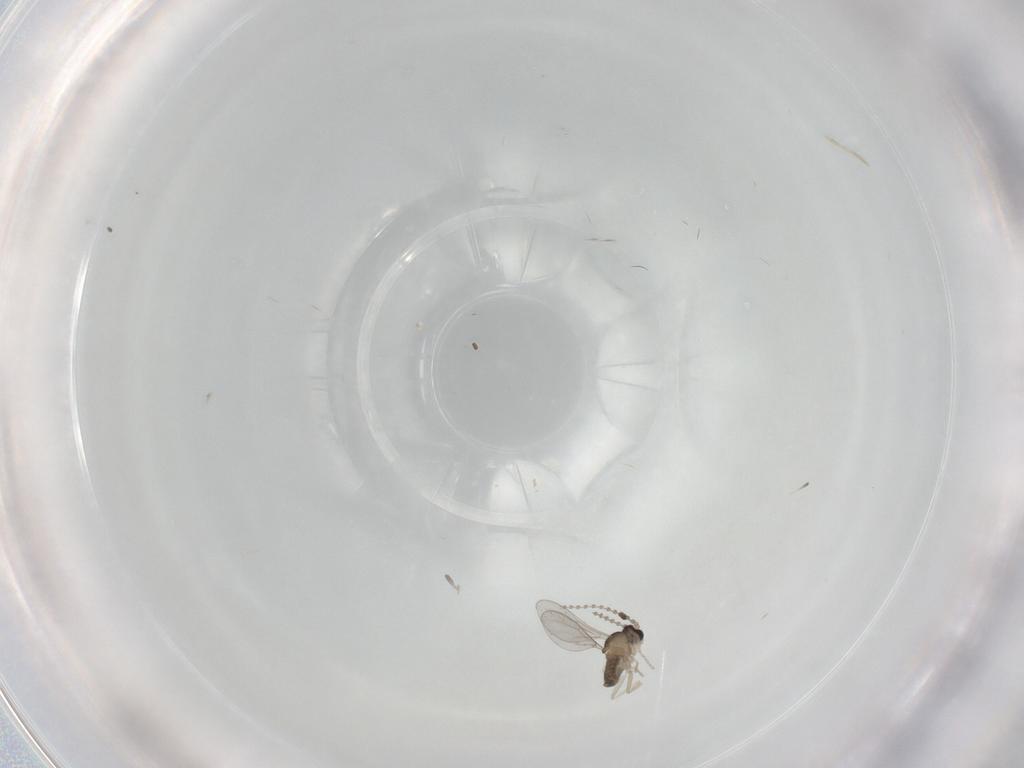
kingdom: Animalia
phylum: Arthropoda
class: Insecta
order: Diptera
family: Cecidomyiidae
